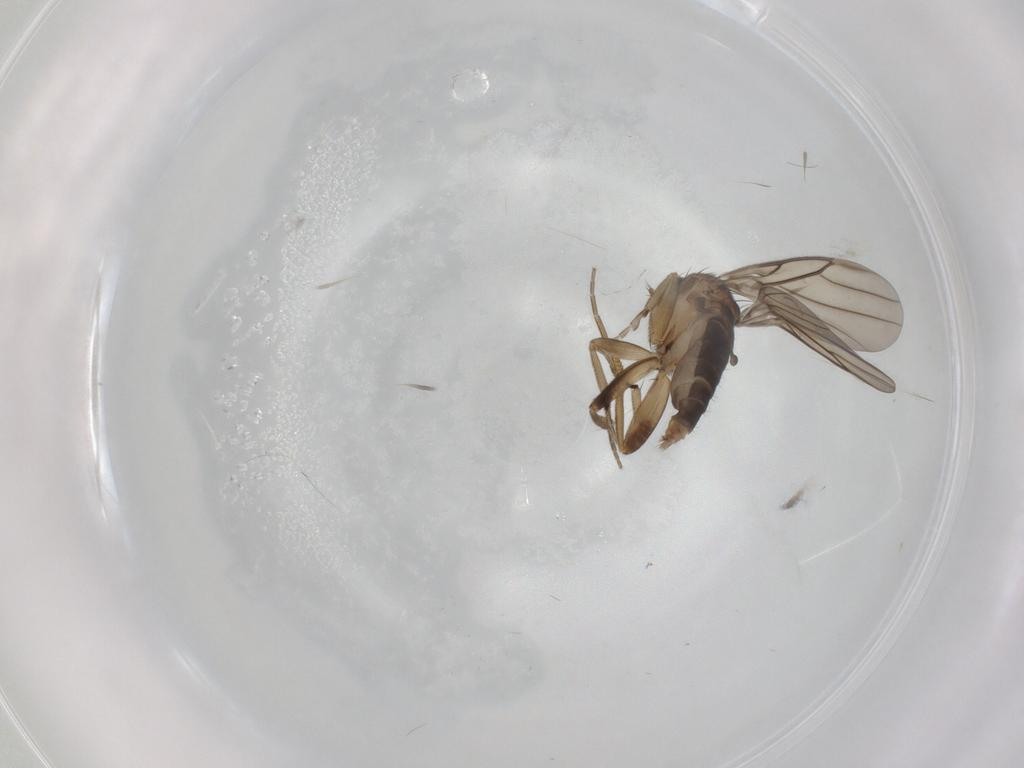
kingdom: Animalia
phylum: Arthropoda
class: Insecta
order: Diptera
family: Phoridae
